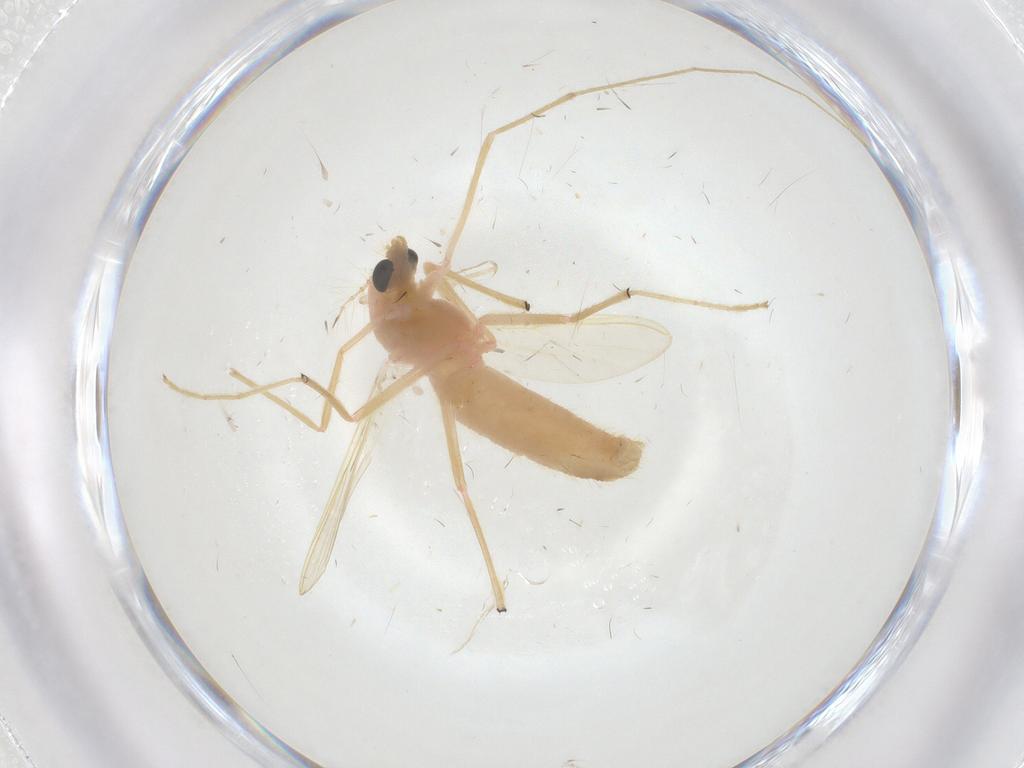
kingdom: Animalia
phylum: Arthropoda
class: Insecta
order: Diptera
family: Chironomidae
